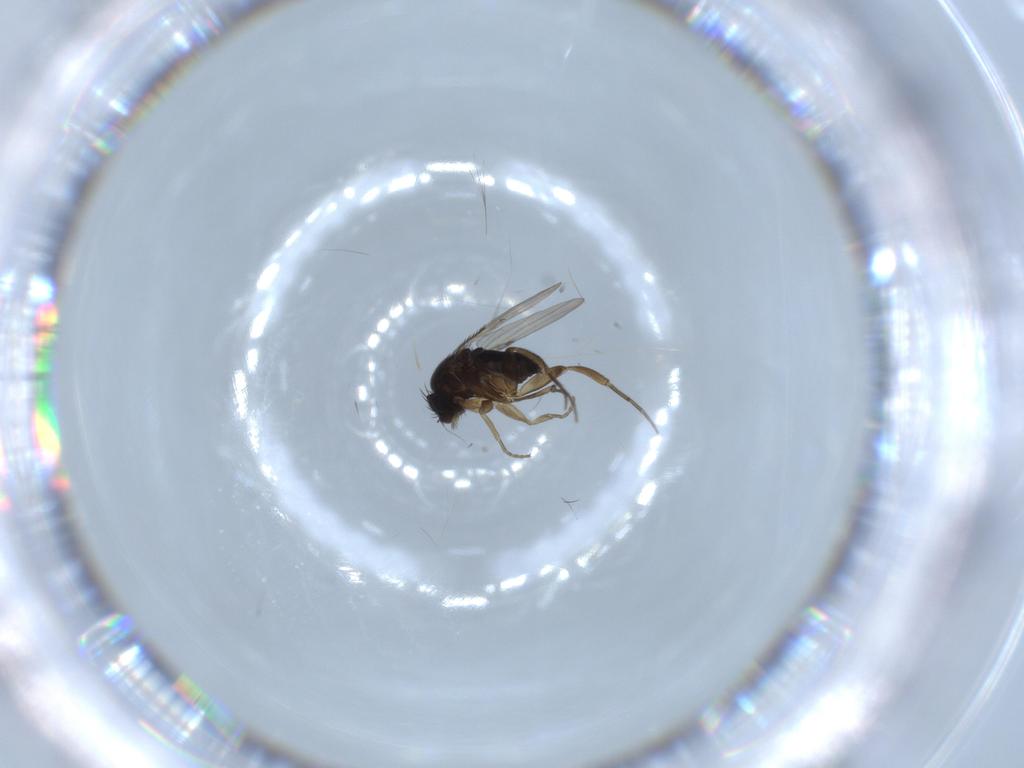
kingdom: Animalia
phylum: Arthropoda
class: Insecta
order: Diptera
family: Phoridae
